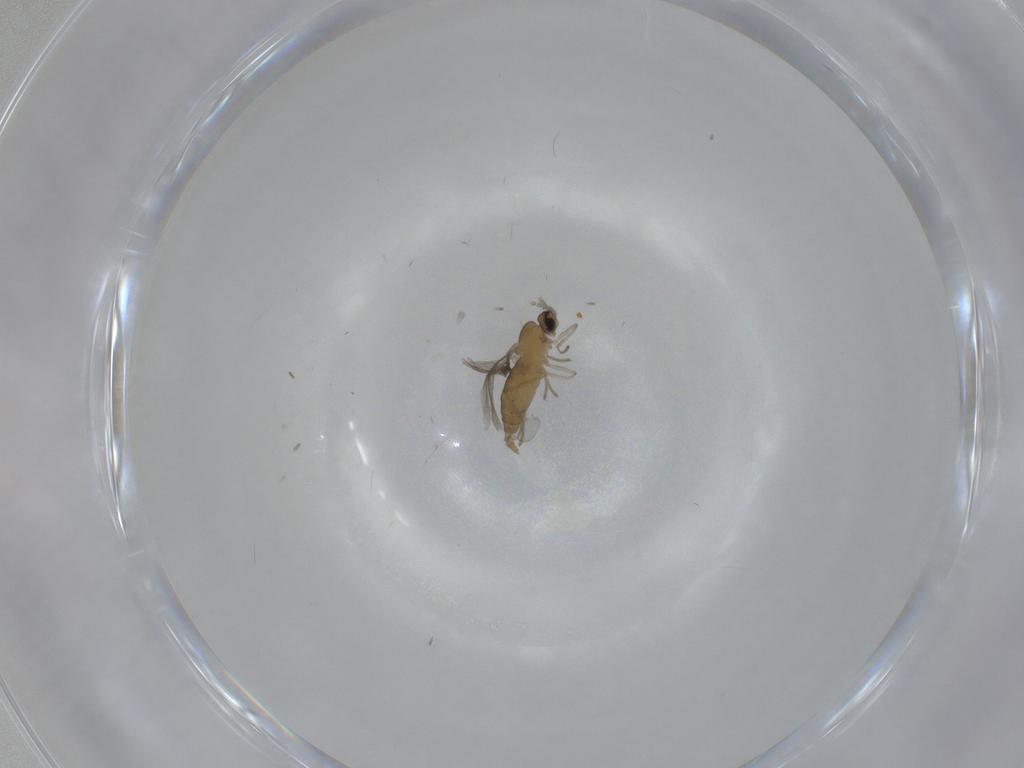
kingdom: Animalia
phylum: Arthropoda
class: Insecta
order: Diptera
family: Cecidomyiidae
